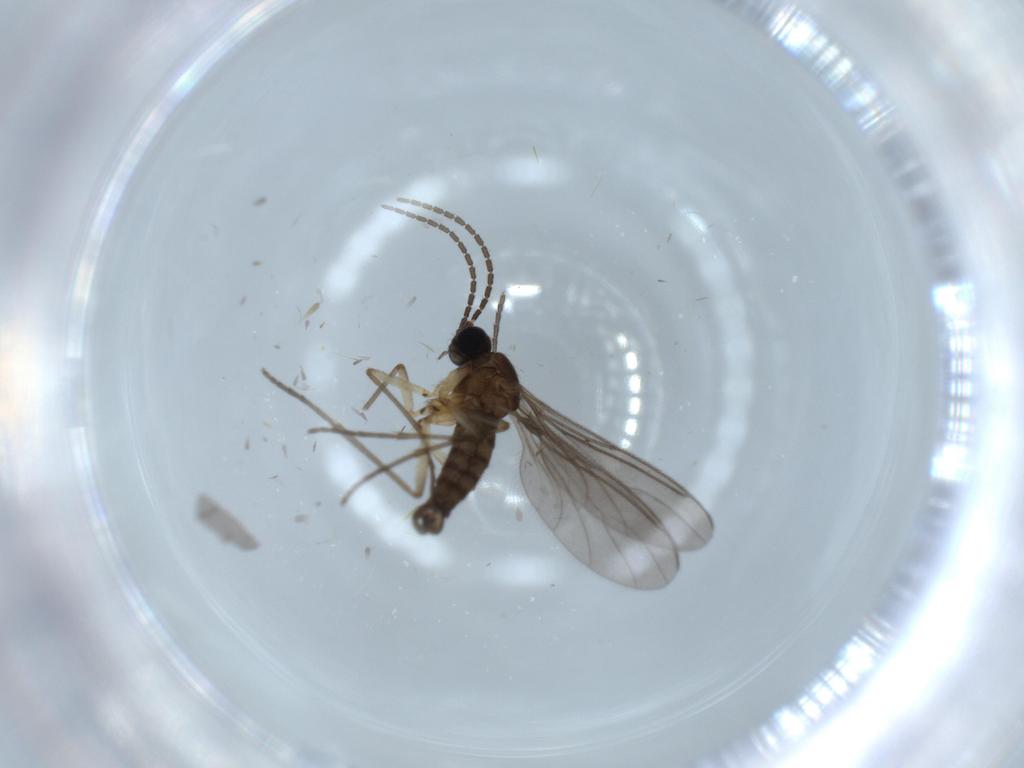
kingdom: Animalia
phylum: Arthropoda
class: Insecta
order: Diptera
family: Sciaridae
